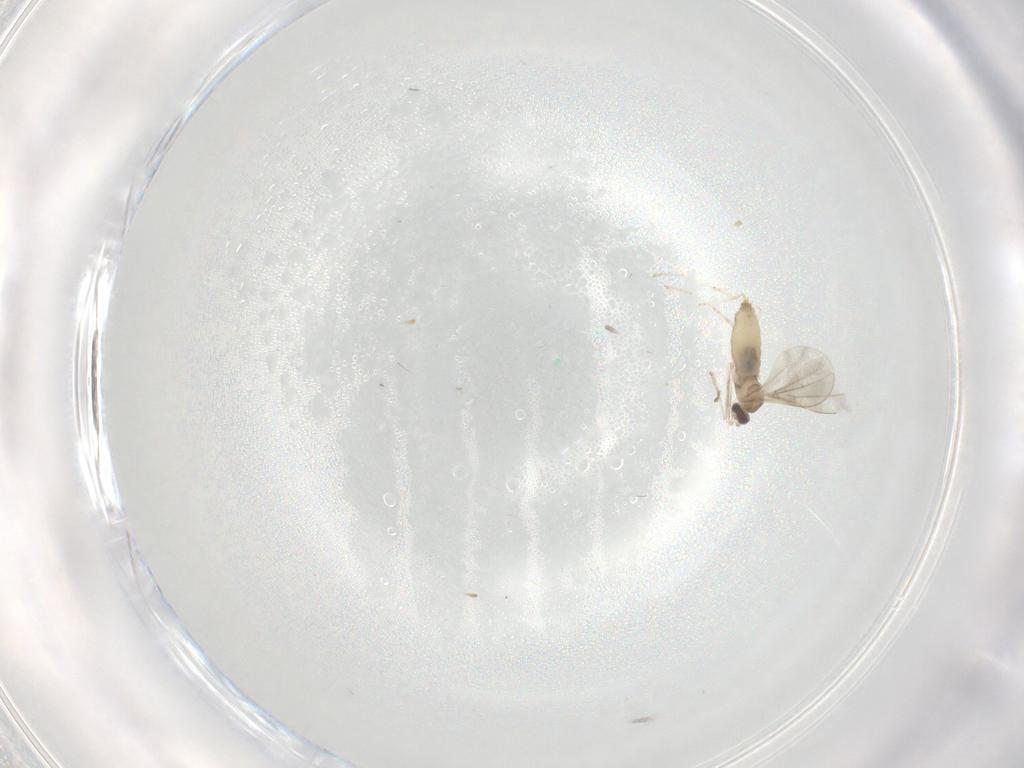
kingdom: Animalia
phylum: Arthropoda
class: Insecta
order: Diptera
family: Cecidomyiidae
